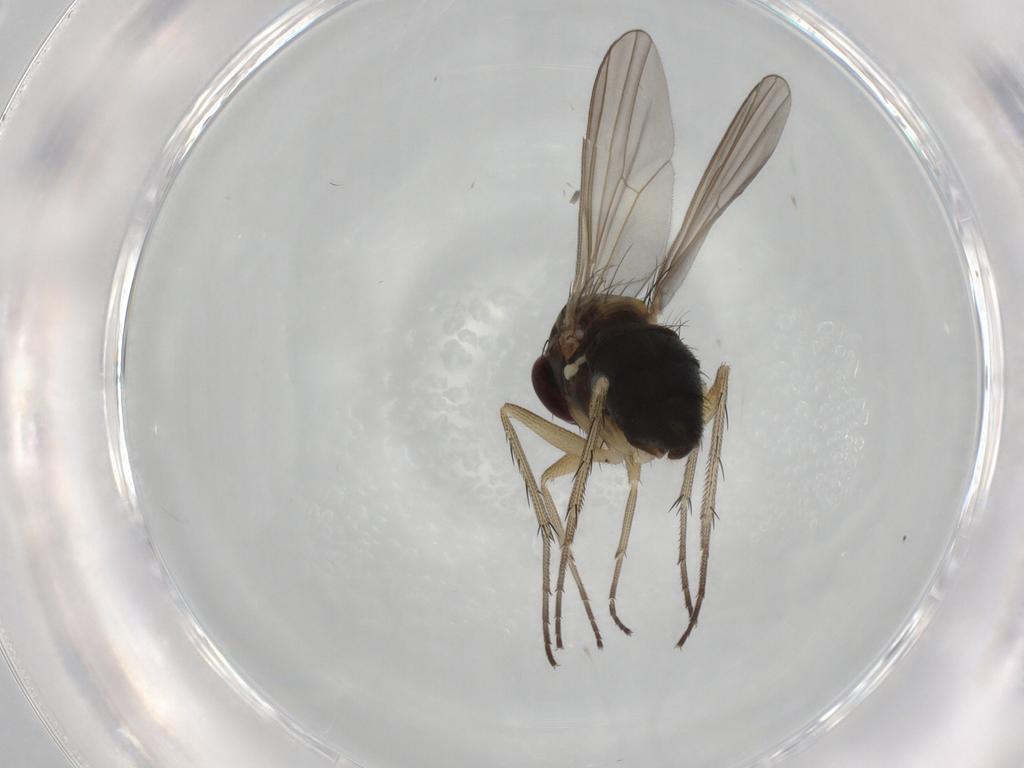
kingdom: Animalia
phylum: Arthropoda
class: Insecta
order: Diptera
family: Dolichopodidae
